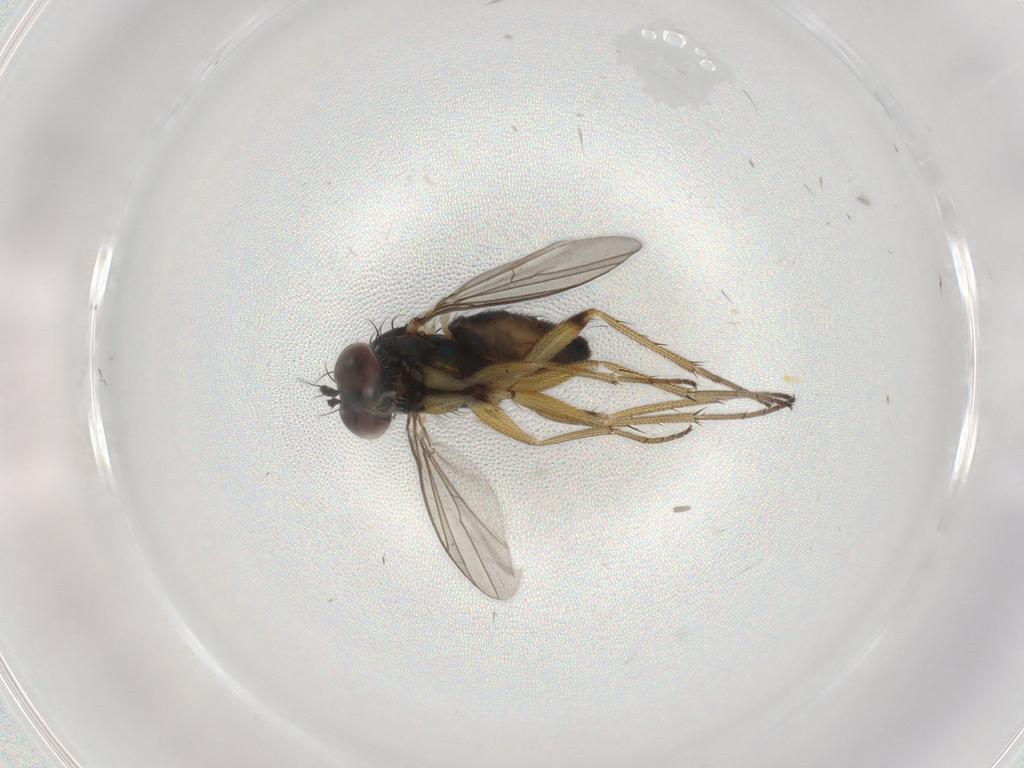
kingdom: Animalia
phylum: Arthropoda
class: Insecta
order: Diptera
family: Dolichopodidae
